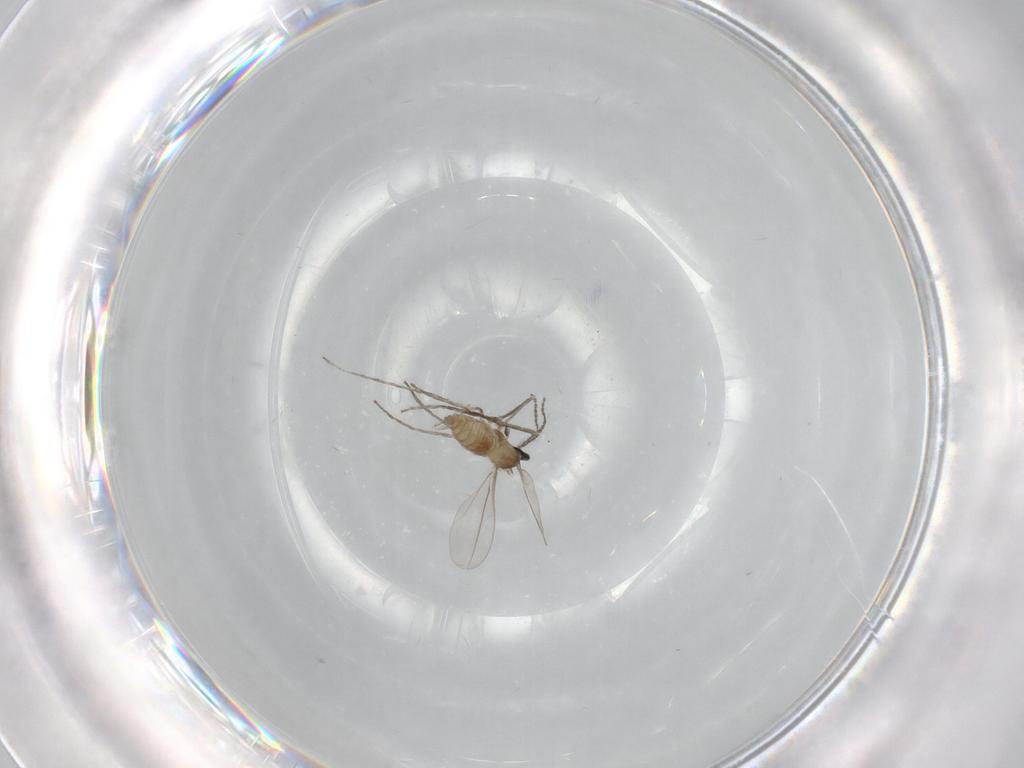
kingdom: Animalia
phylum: Arthropoda
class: Insecta
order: Diptera
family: Cecidomyiidae
